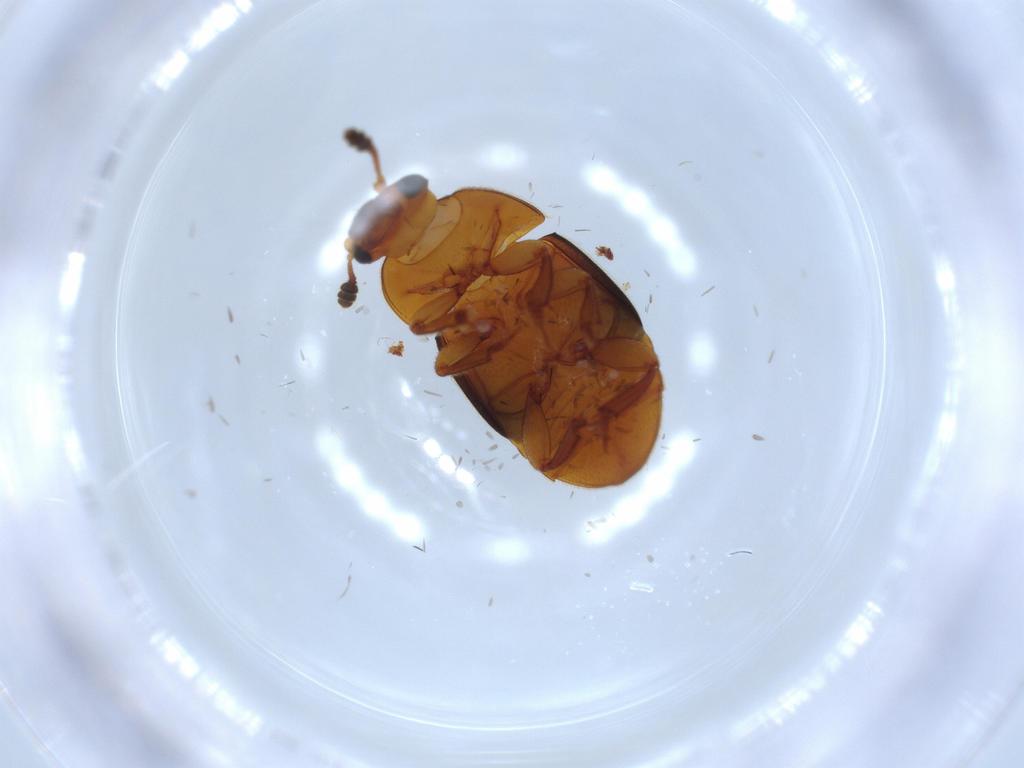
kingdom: Animalia
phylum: Arthropoda
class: Insecta
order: Coleoptera
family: Nitidulidae
